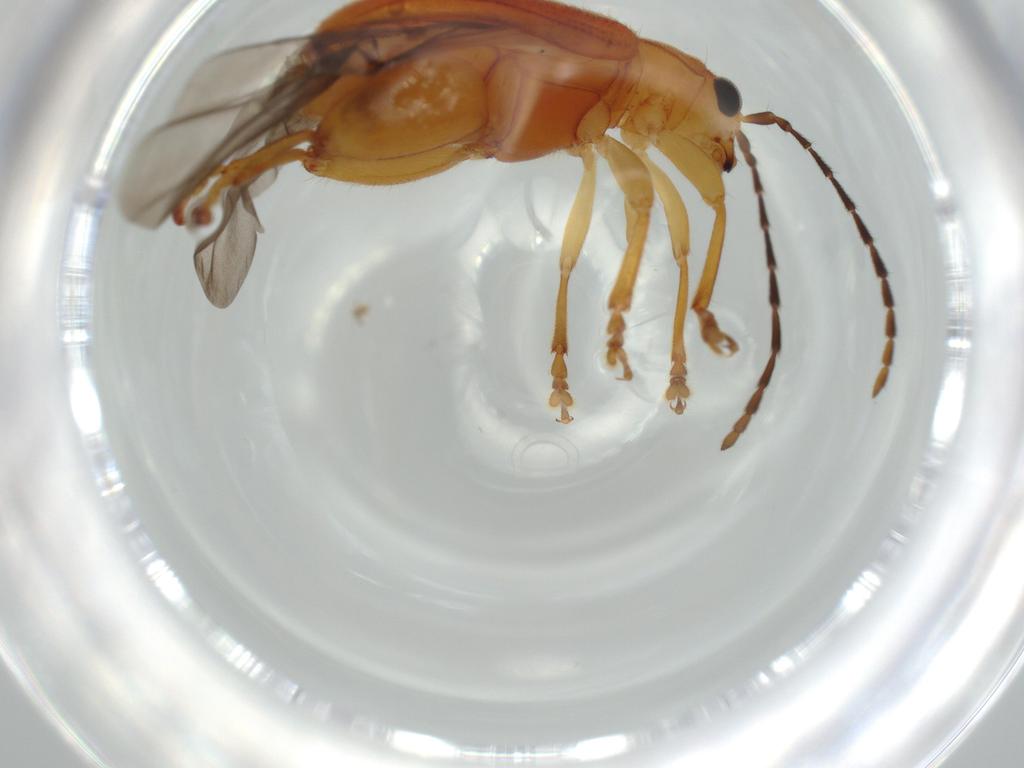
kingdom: Animalia
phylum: Arthropoda
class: Insecta
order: Coleoptera
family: Chrysomelidae
